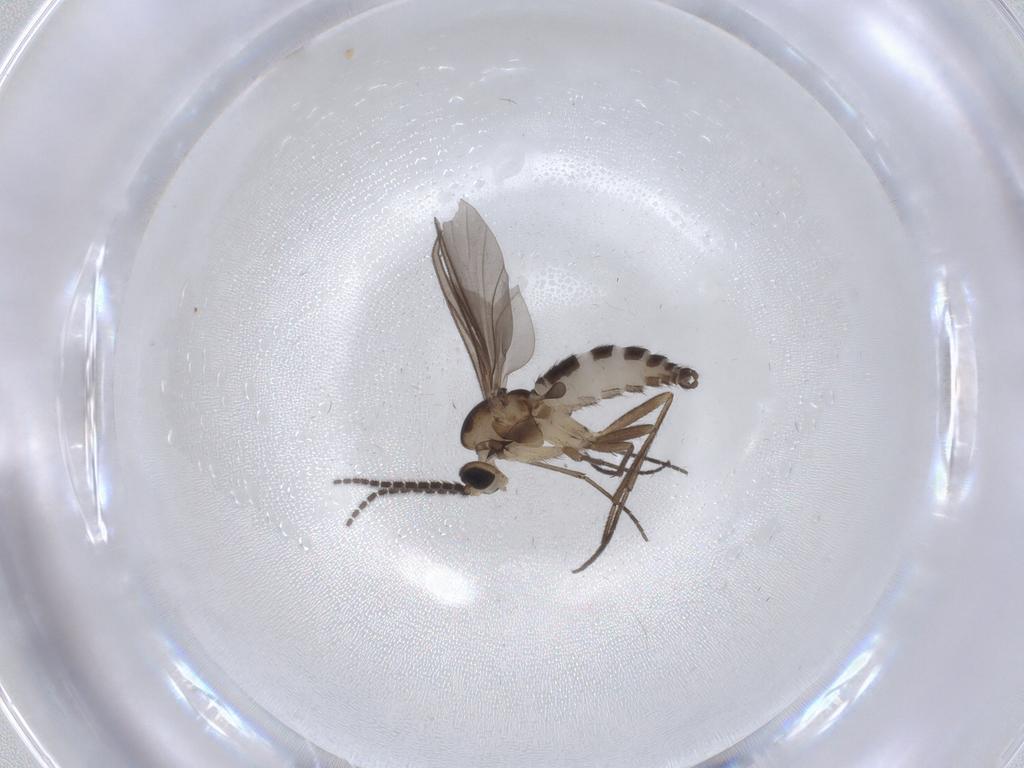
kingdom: Animalia
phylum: Arthropoda
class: Insecta
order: Diptera
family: Sciaridae
